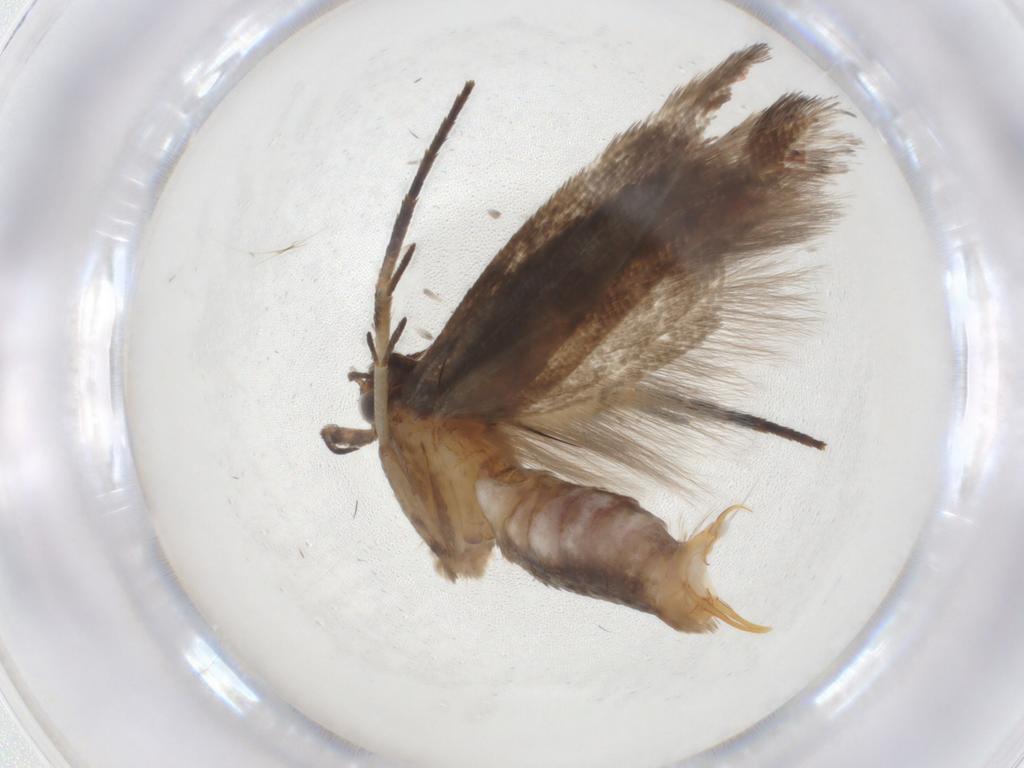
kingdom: Animalia
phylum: Arthropoda
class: Insecta
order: Lepidoptera
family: Gelechiidae
